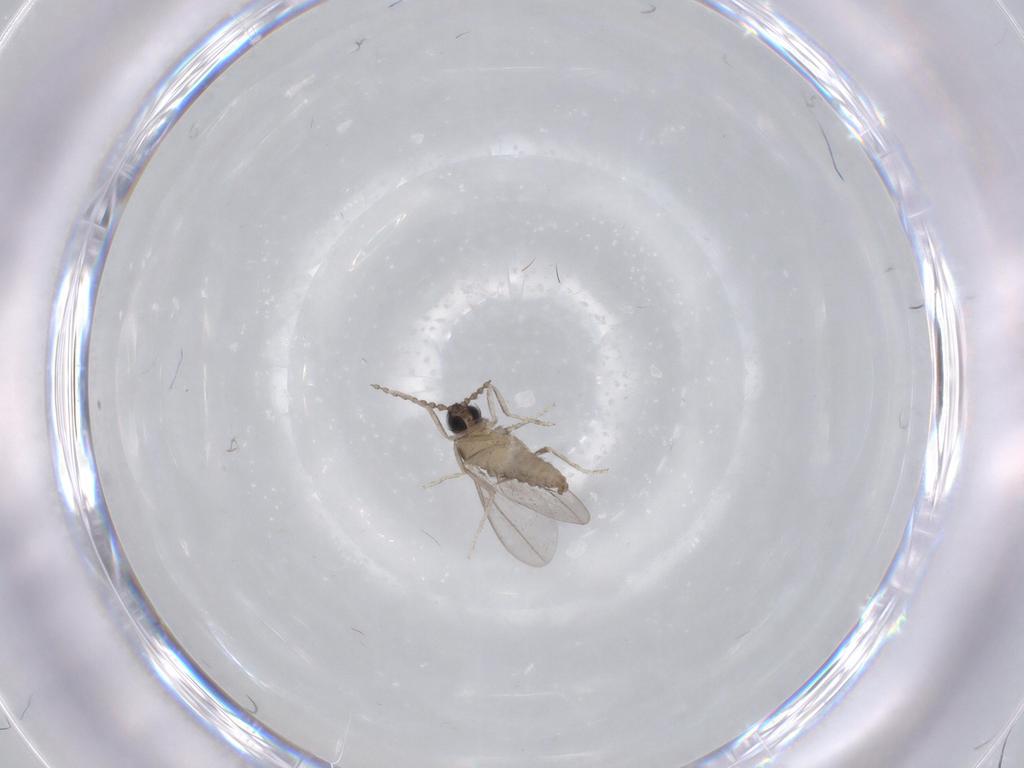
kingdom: Animalia
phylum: Arthropoda
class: Insecta
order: Diptera
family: Cecidomyiidae
